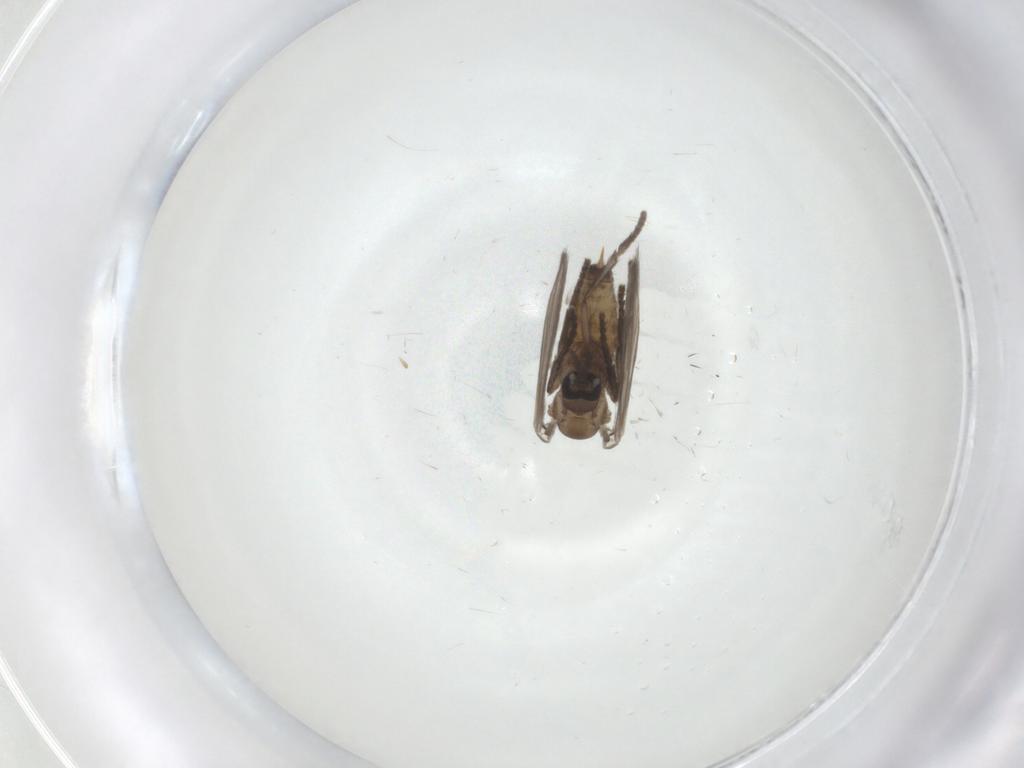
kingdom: Animalia
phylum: Arthropoda
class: Insecta
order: Diptera
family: Psychodidae
